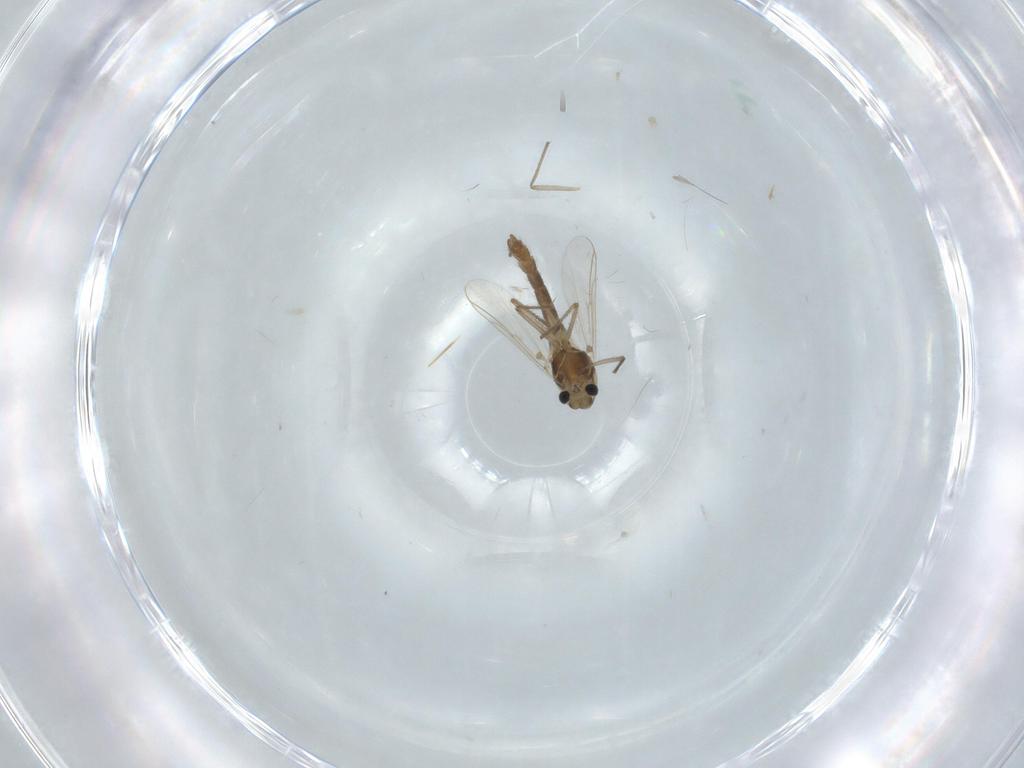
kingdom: Animalia
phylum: Arthropoda
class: Insecta
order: Diptera
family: Chironomidae
